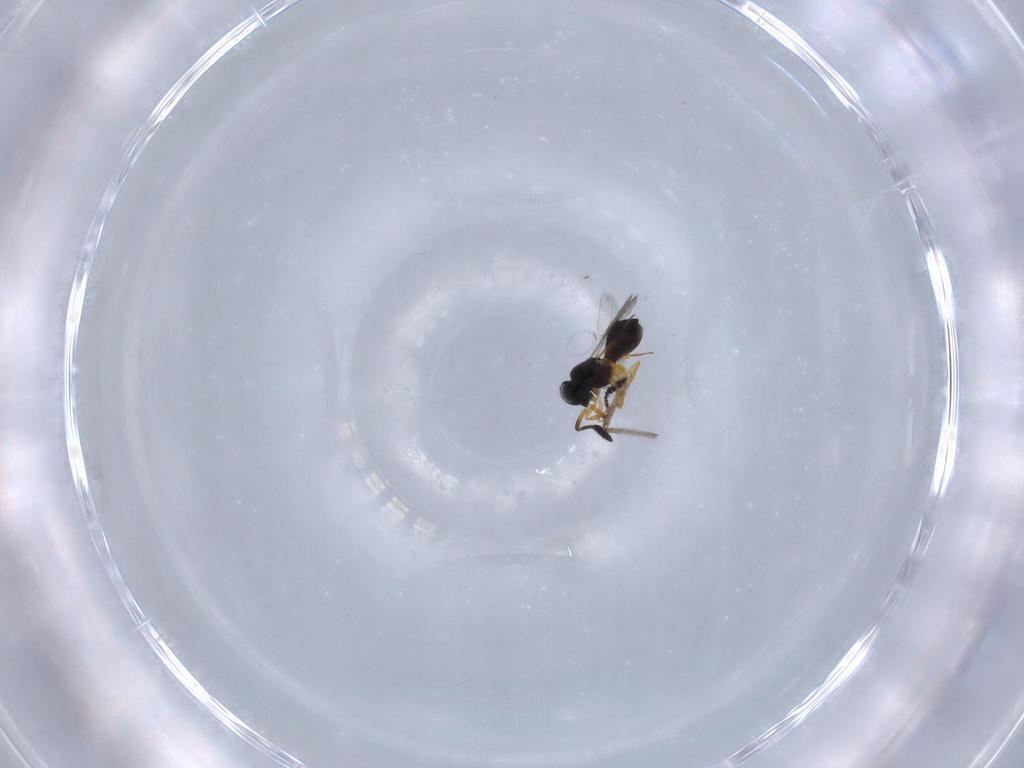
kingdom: Animalia
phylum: Arthropoda
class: Insecta
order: Hymenoptera
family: Scelionidae
